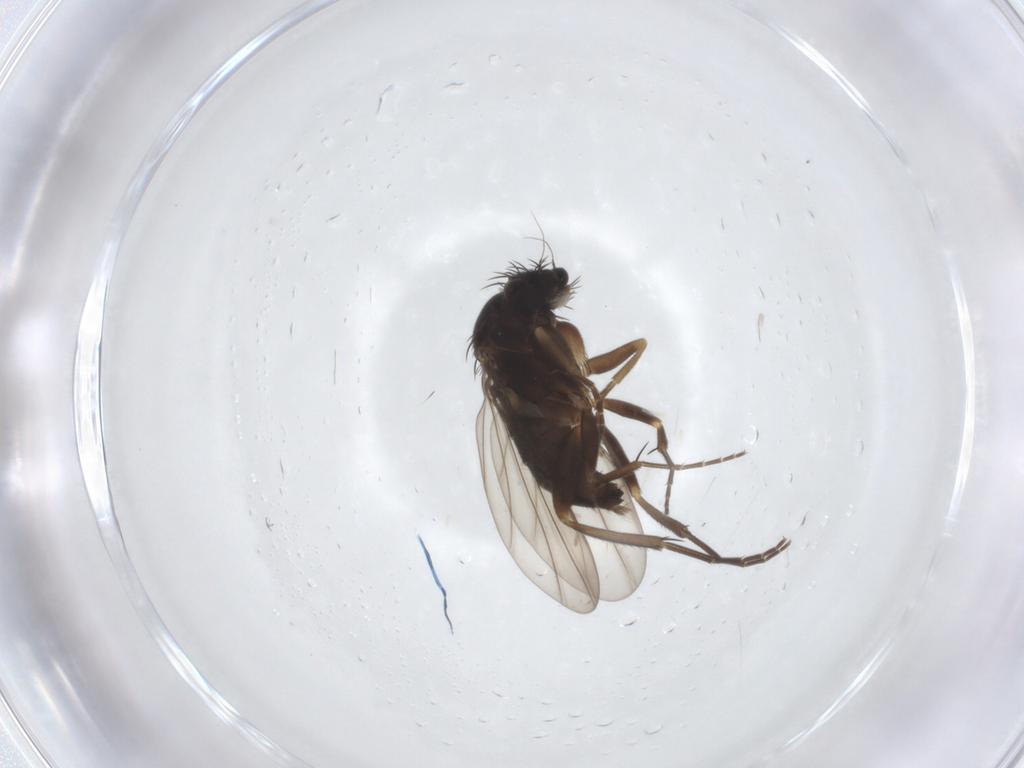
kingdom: Animalia
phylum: Arthropoda
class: Insecta
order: Diptera
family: Phoridae
